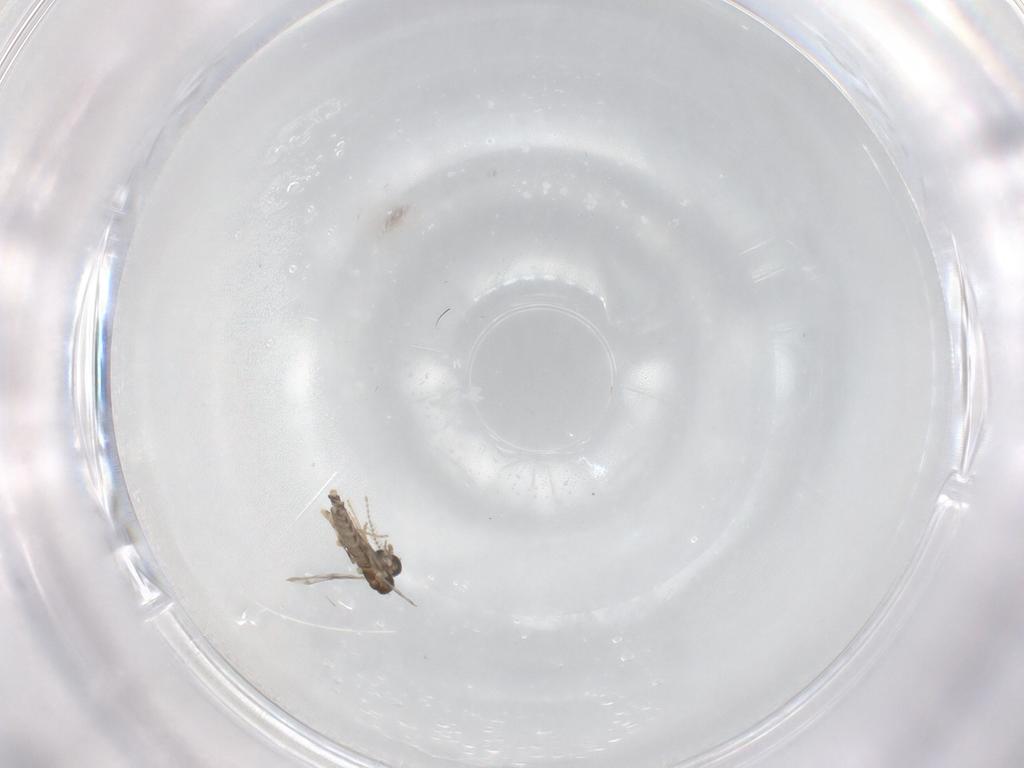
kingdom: Animalia
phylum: Arthropoda
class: Insecta
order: Diptera
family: Ceratopogonidae
